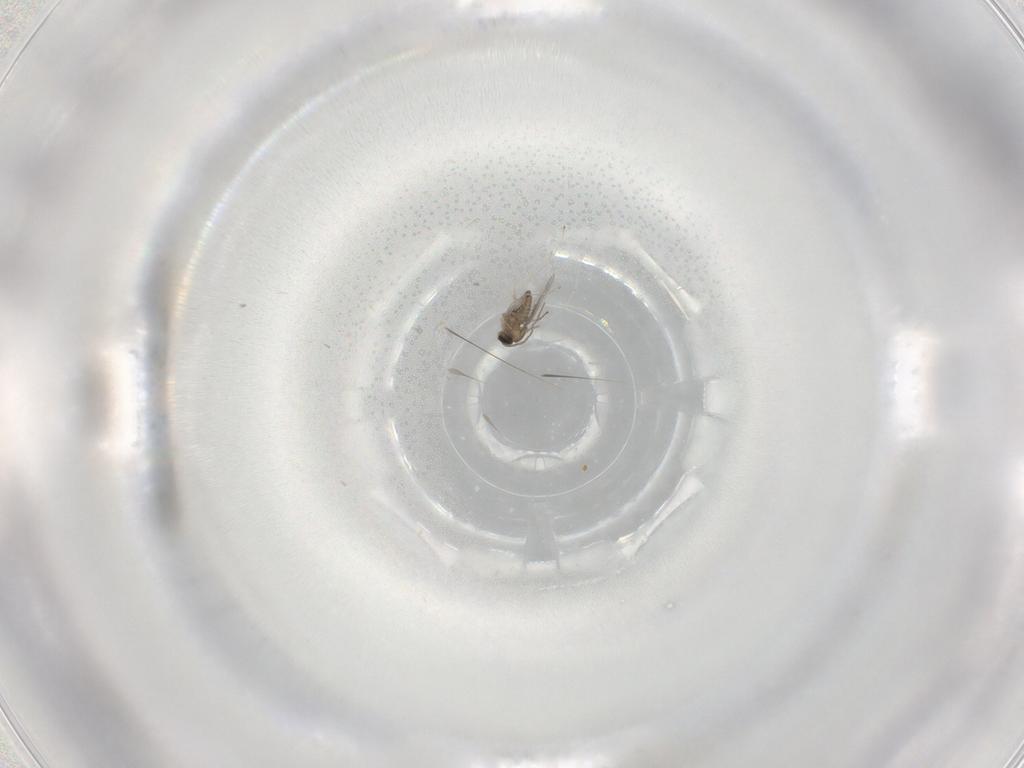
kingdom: Animalia
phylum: Arthropoda
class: Insecta
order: Diptera
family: Cecidomyiidae
